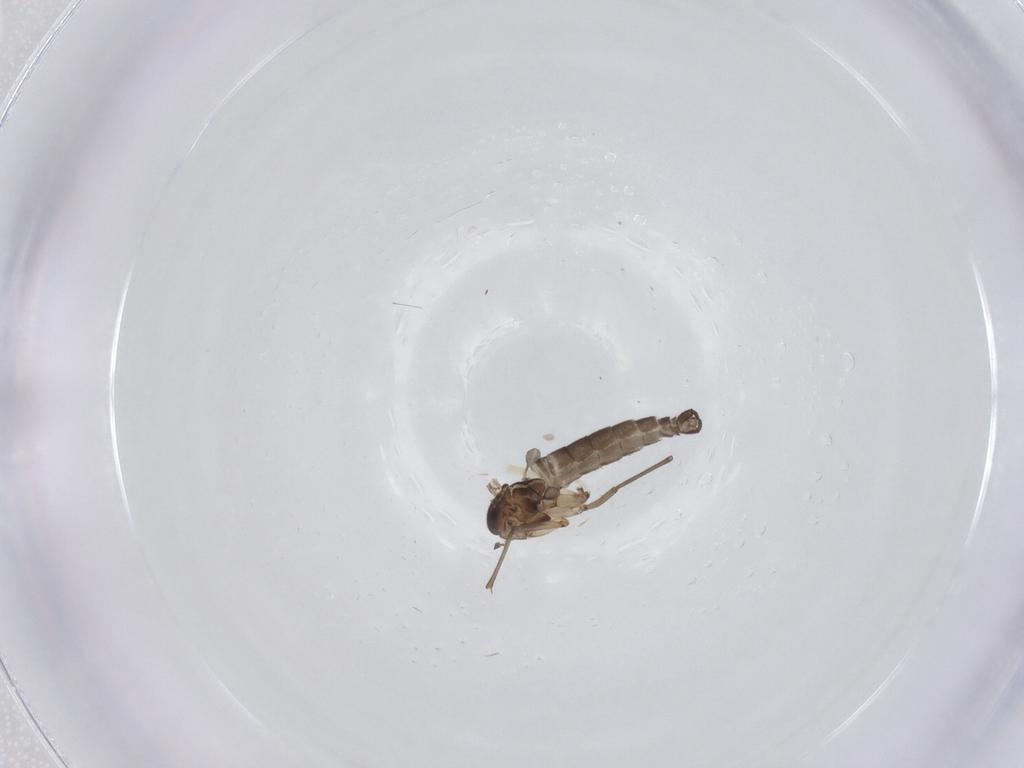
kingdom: Animalia
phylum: Arthropoda
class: Insecta
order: Diptera
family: Sciaridae
